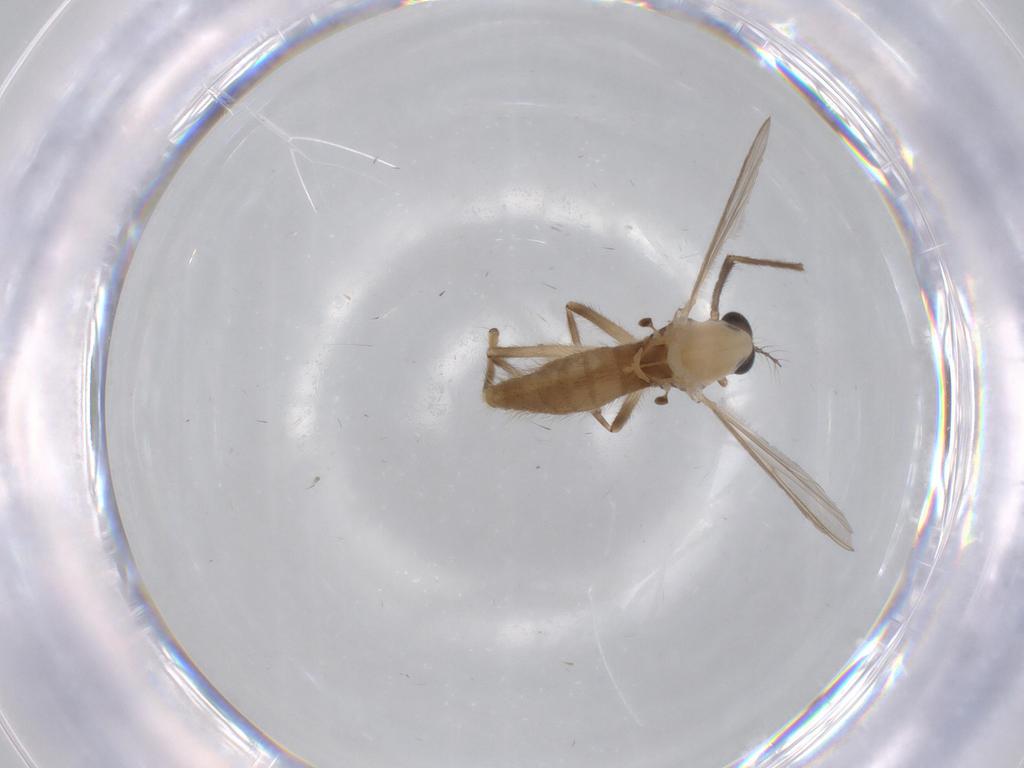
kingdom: Animalia
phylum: Arthropoda
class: Insecta
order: Diptera
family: Chironomidae
